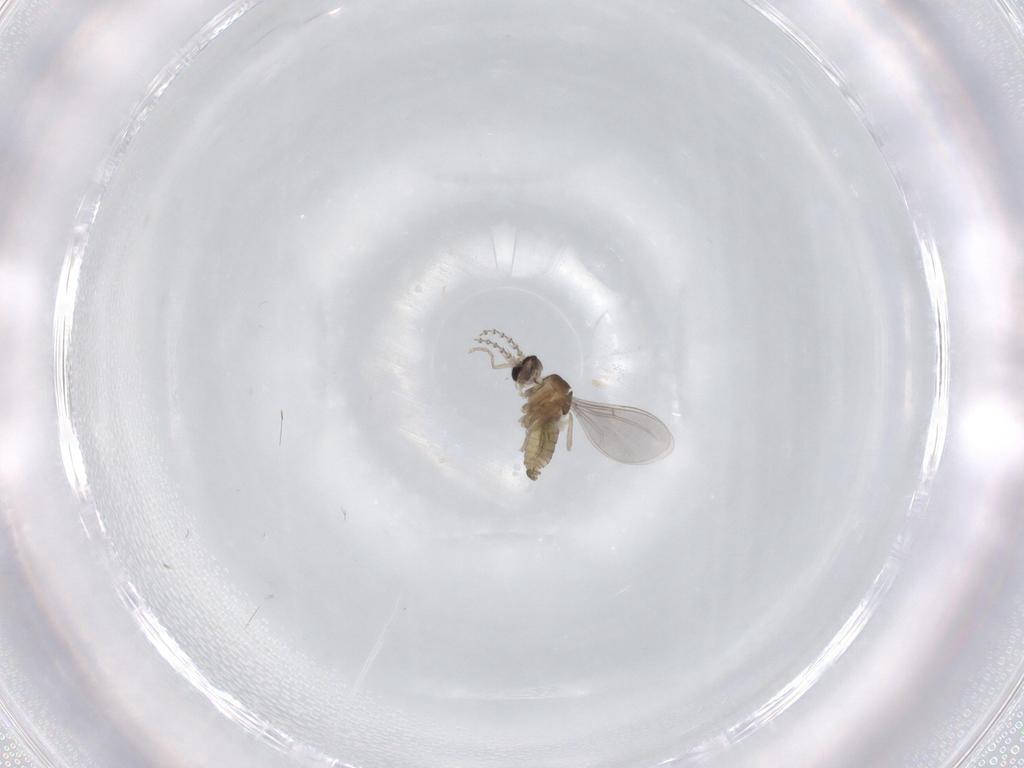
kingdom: Animalia
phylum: Arthropoda
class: Insecta
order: Diptera
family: Cecidomyiidae
